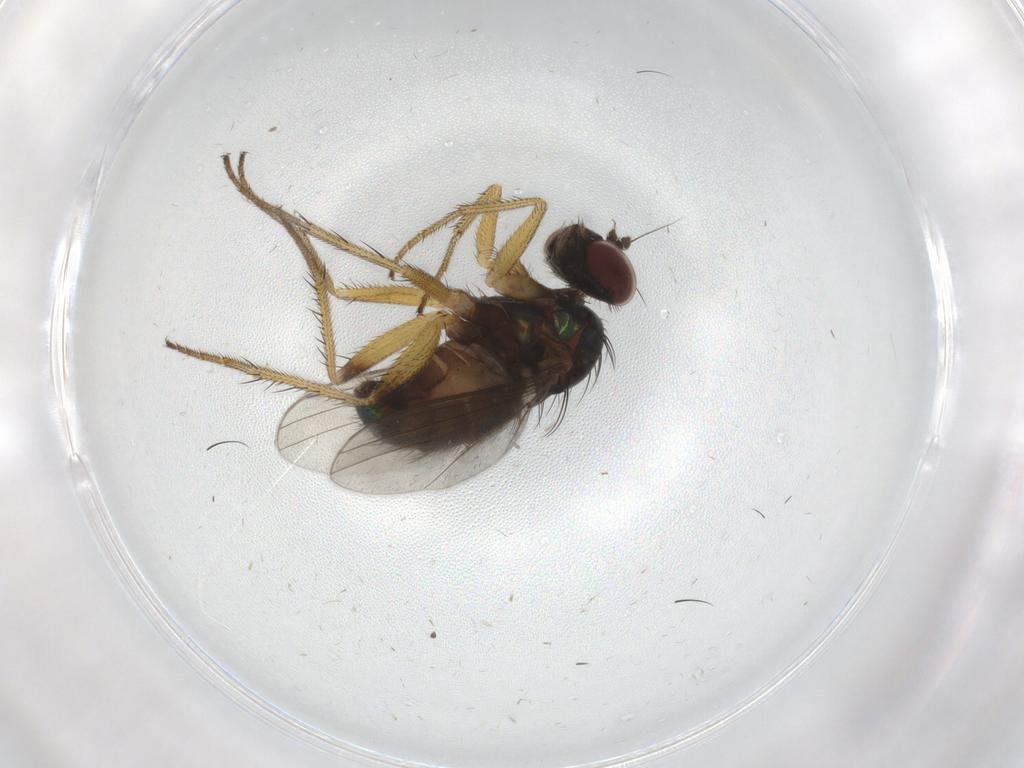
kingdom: Animalia
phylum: Arthropoda
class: Insecta
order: Diptera
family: Dolichopodidae
